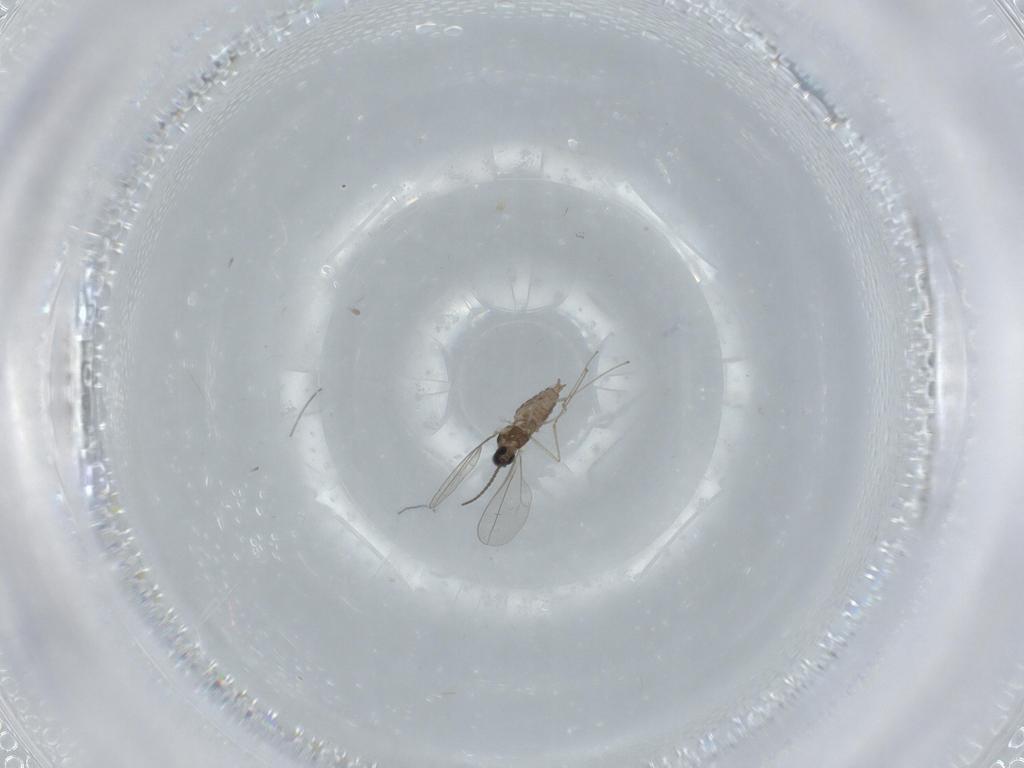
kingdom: Animalia
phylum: Arthropoda
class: Insecta
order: Diptera
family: Cecidomyiidae
